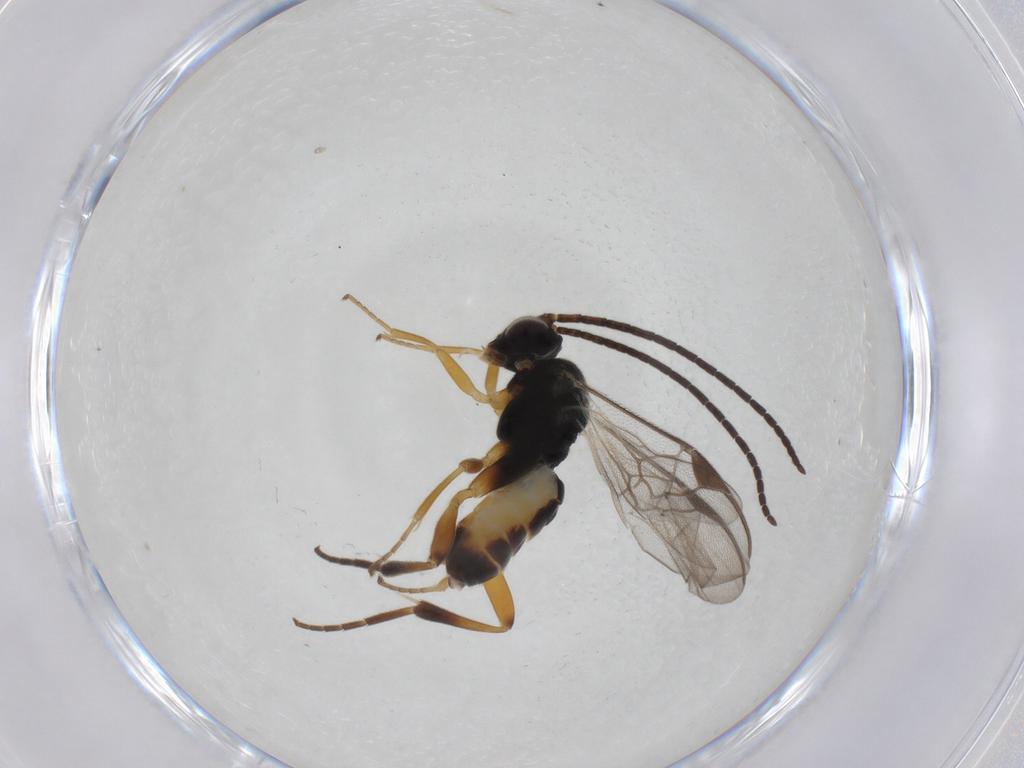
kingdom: Animalia
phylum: Arthropoda
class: Insecta
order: Hymenoptera
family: Braconidae
